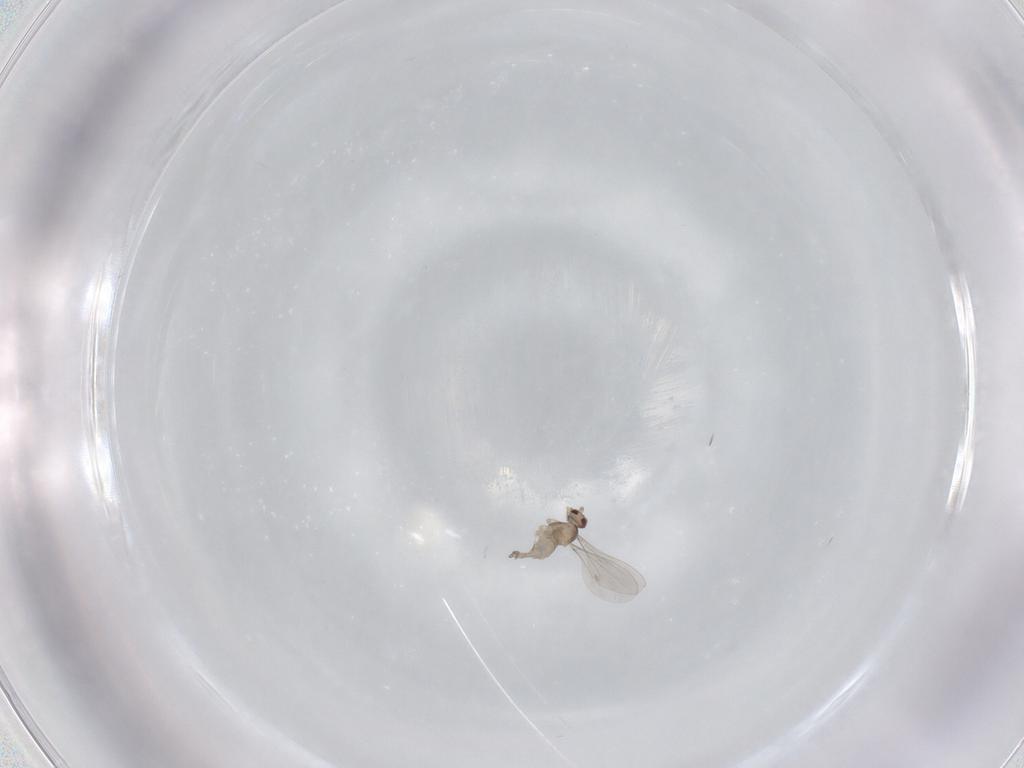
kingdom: Animalia
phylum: Arthropoda
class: Insecta
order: Diptera
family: Cecidomyiidae
